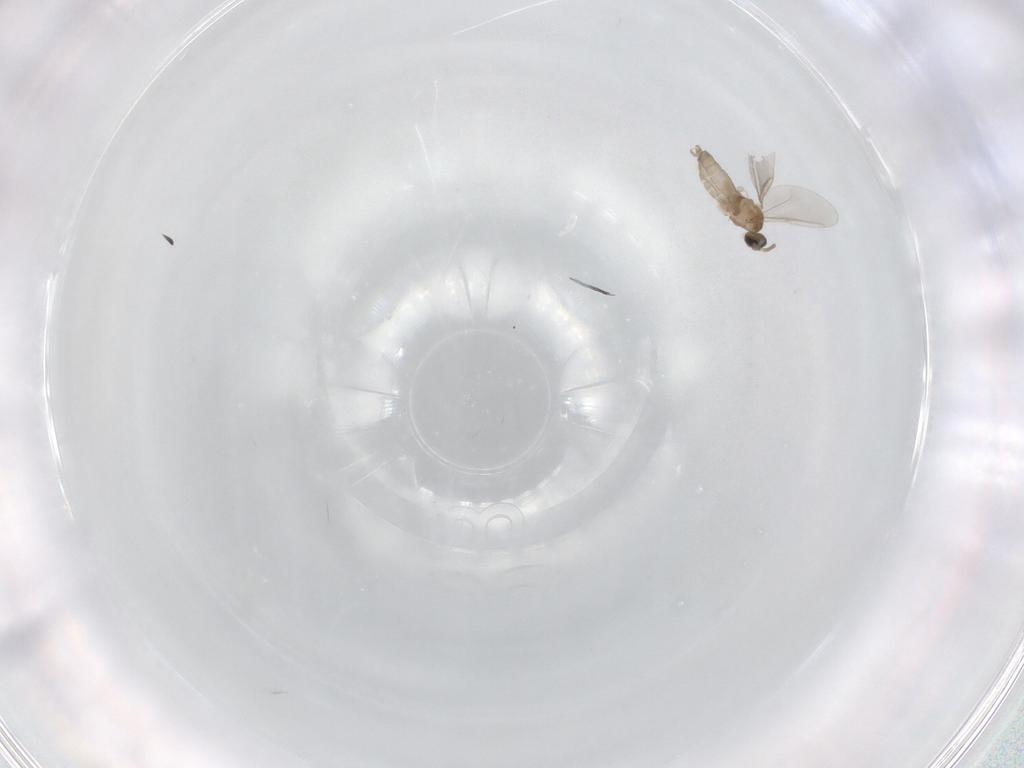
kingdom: Animalia
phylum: Arthropoda
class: Insecta
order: Diptera
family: Cecidomyiidae
